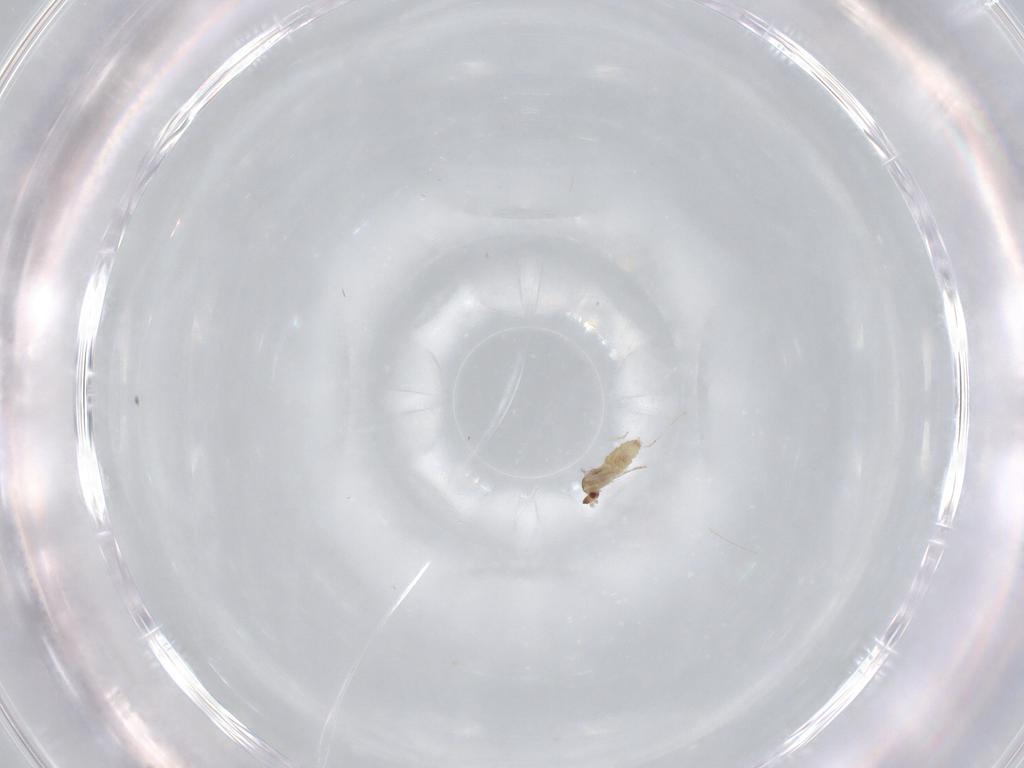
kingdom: Animalia
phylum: Arthropoda
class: Insecta
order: Diptera
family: Cecidomyiidae
